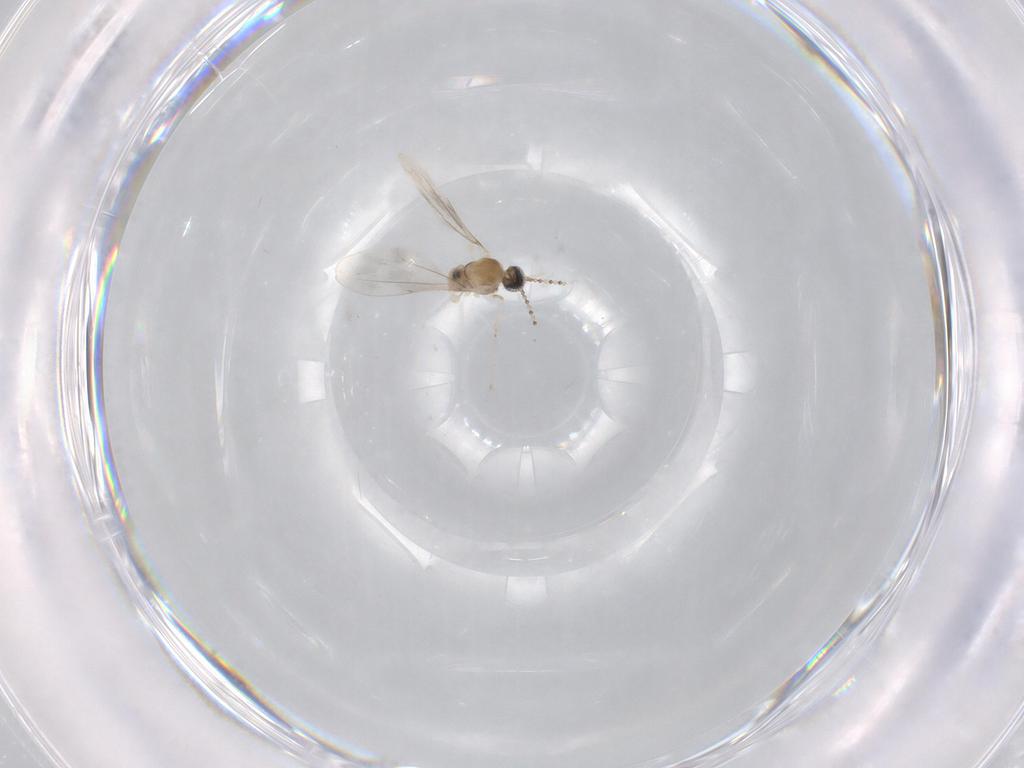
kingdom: Animalia
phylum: Arthropoda
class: Insecta
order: Diptera
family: Cecidomyiidae
